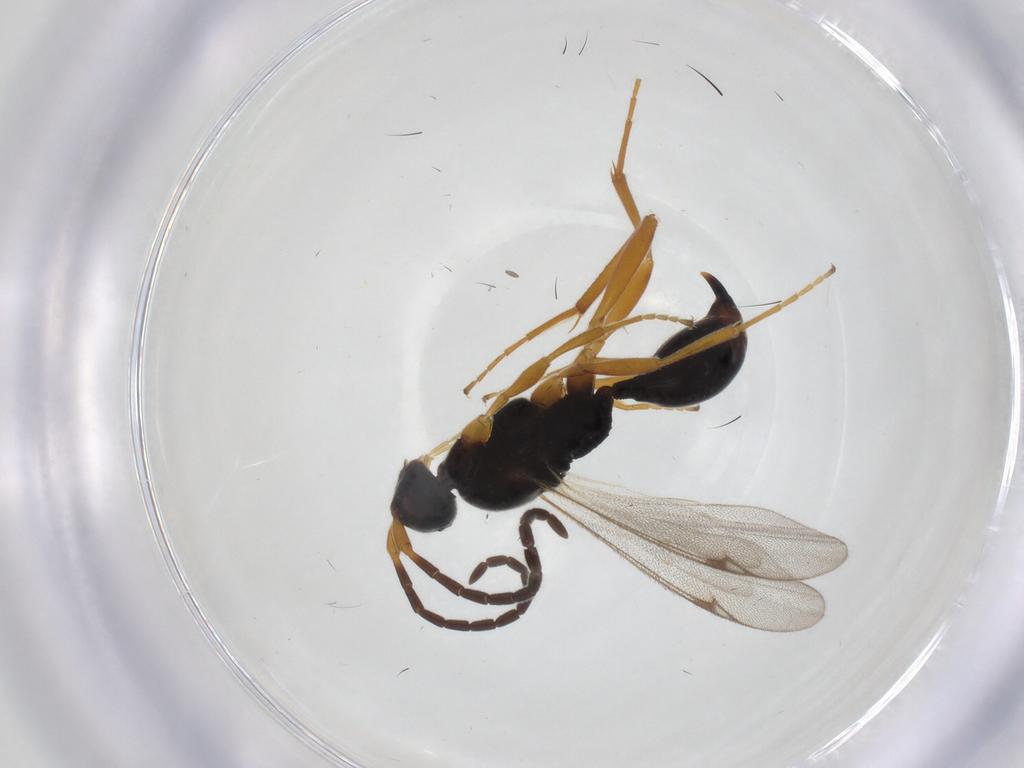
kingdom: Animalia
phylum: Arthropoda
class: Insecta
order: Hymenoptera
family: Proctotrupidae
